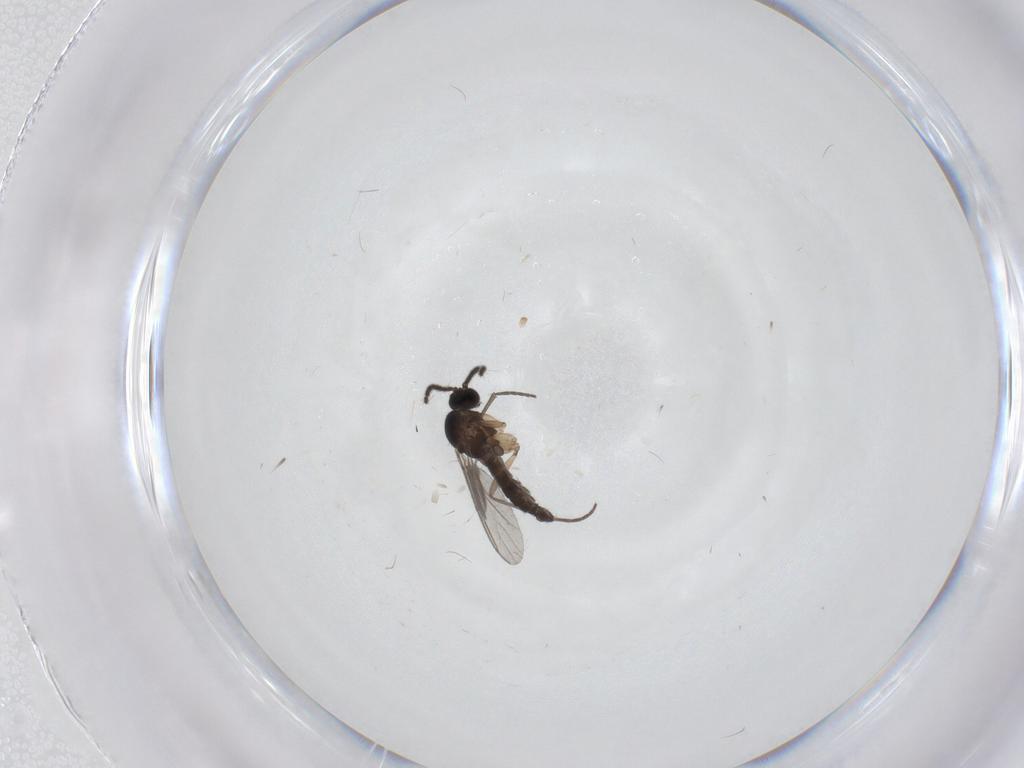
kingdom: Animalia
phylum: Arthropoda
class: Insecta
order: Diptera
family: Sciaridae
